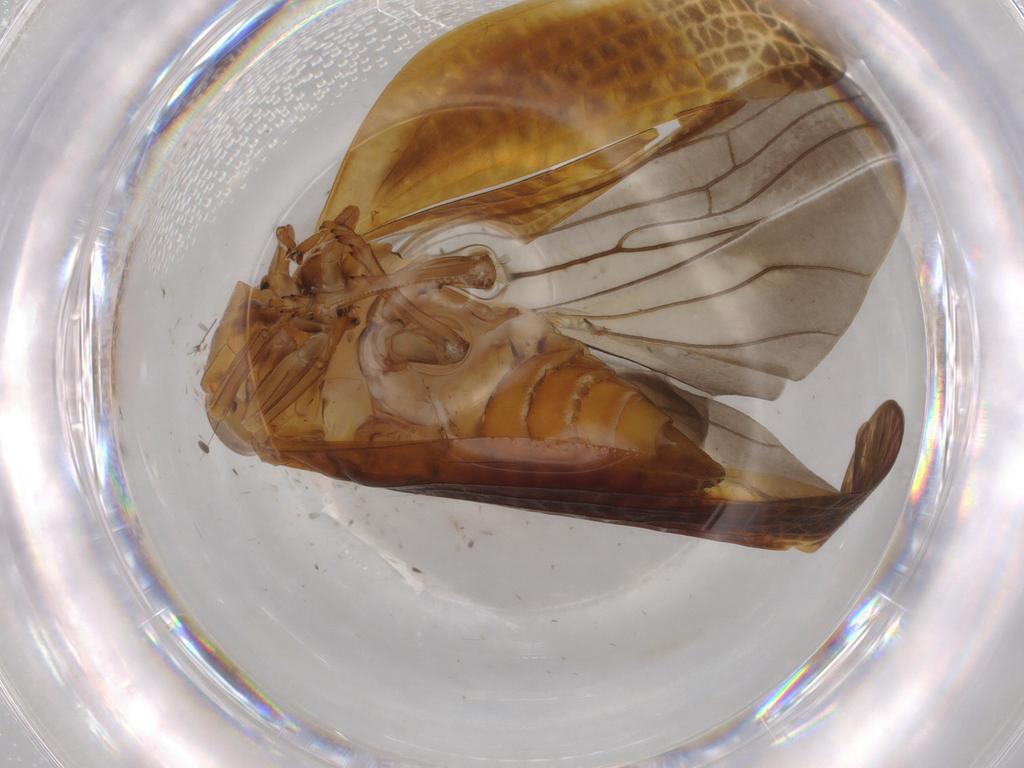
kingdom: Animalia
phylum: Arthropoda
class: Insecta
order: Hemiptera
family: Nogodinidae
